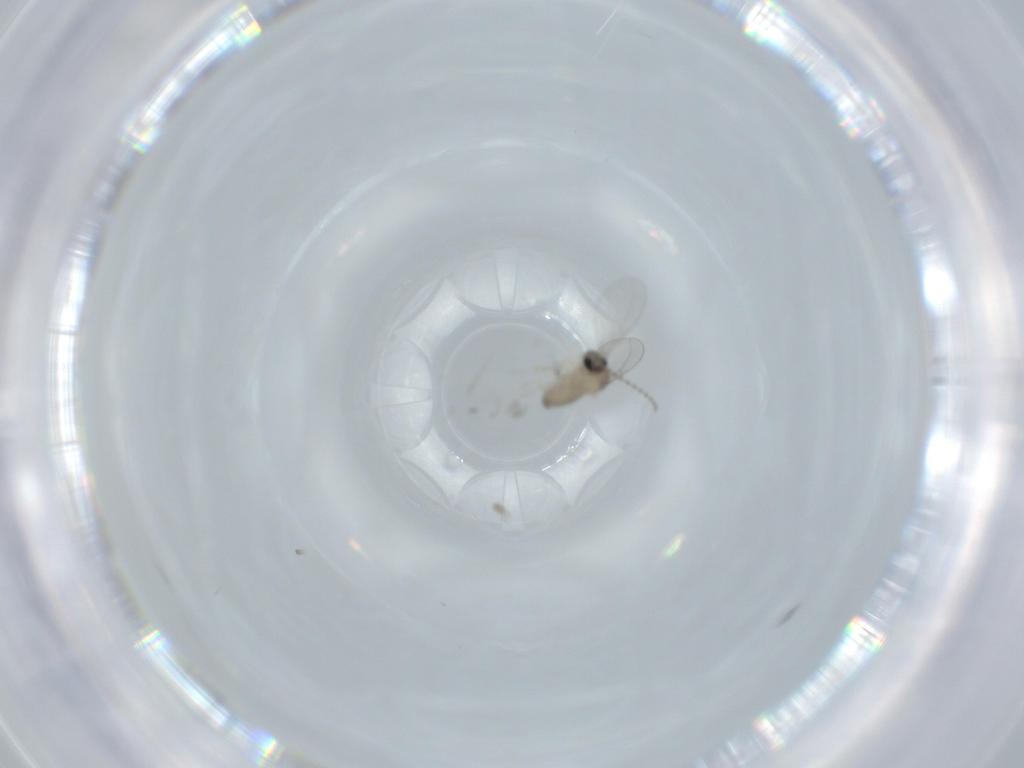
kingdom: Animalia
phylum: Arthropoda
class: Insecta
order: Diptera
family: Cecidomyiidae
